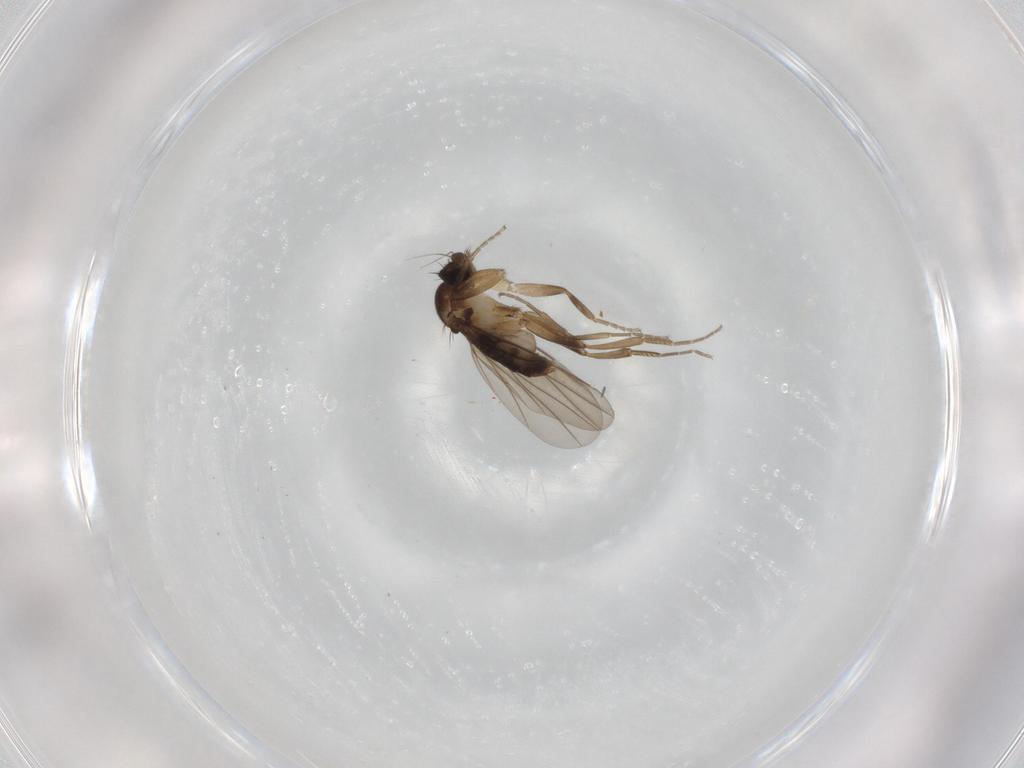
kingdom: Animalia
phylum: Arthropoda
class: Insecta
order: Diptera
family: Phoridae
